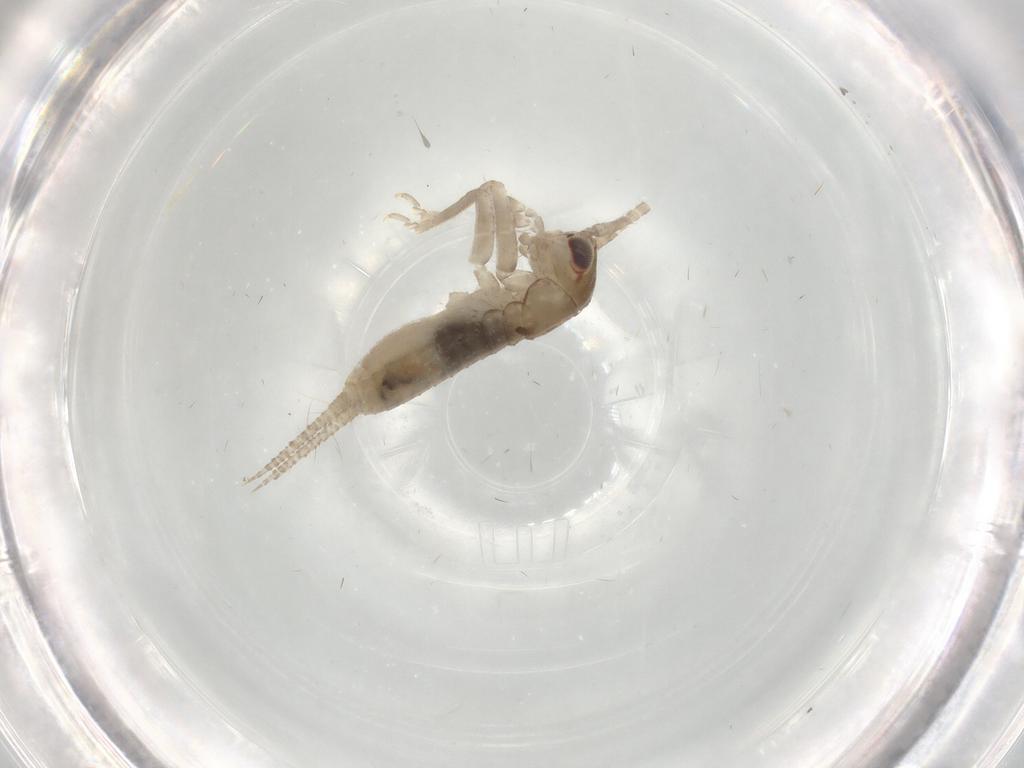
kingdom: Animalia
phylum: Arthropoda
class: Insecta
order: Orthoptera
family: Gryllidae
